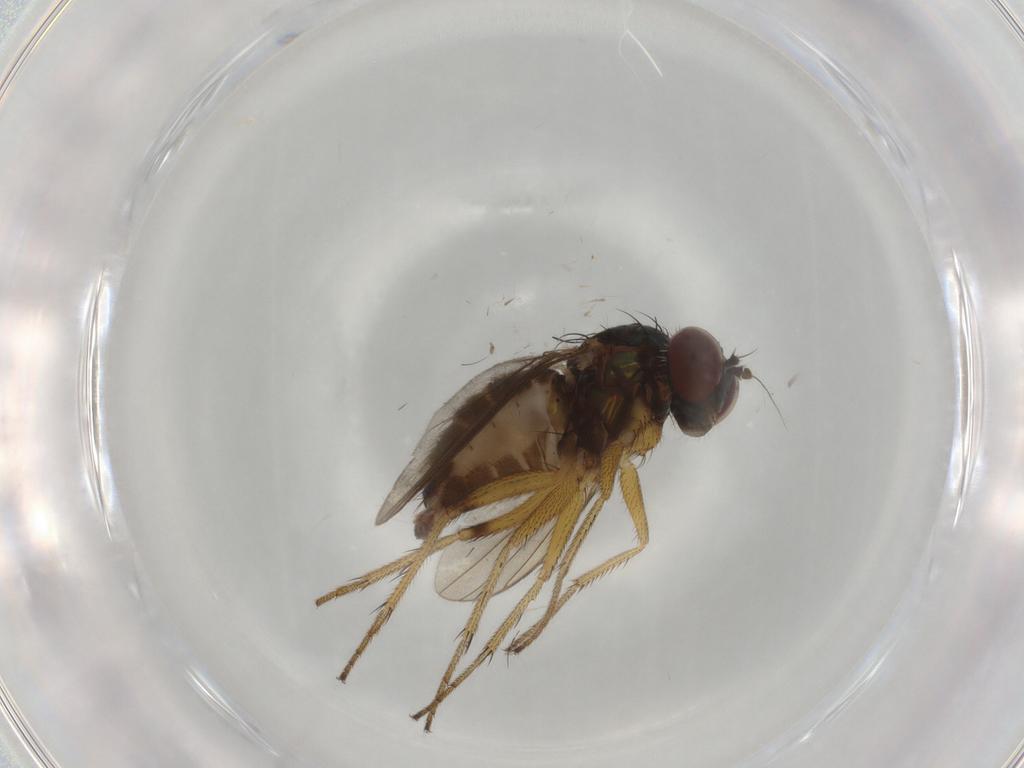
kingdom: Animalia
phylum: Arthropoda
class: Insecta
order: Diptera
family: Dolichopodidae
